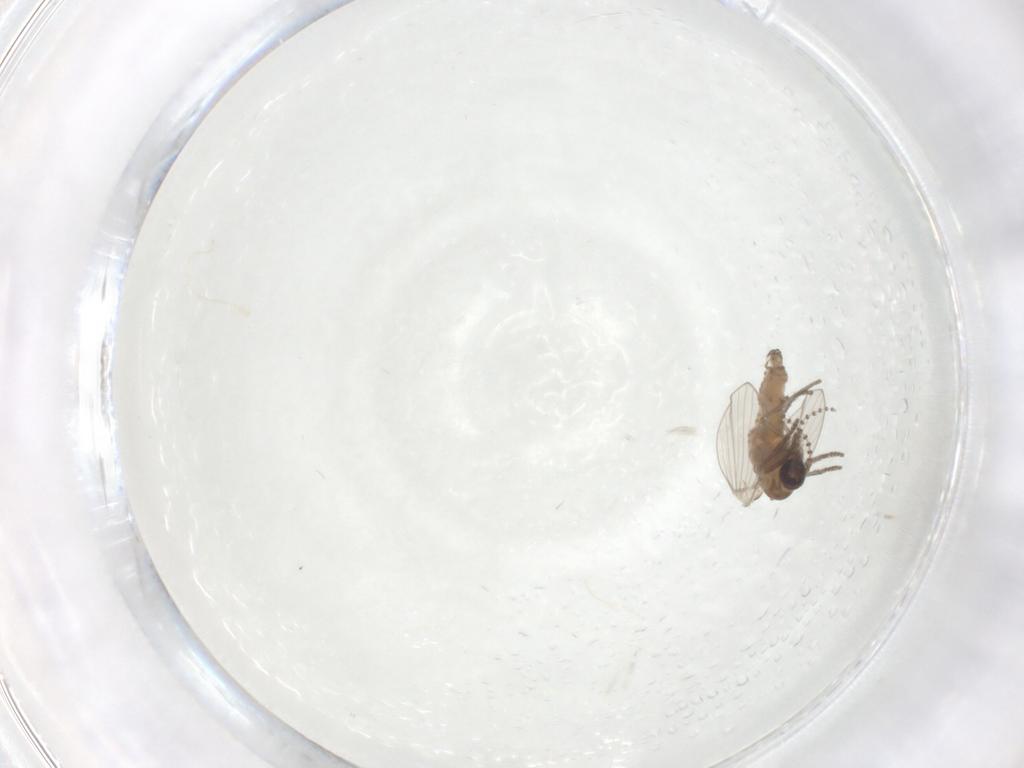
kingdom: Animalia
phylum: Arthropoda
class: Insecta
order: Diptera
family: Psychodidae
